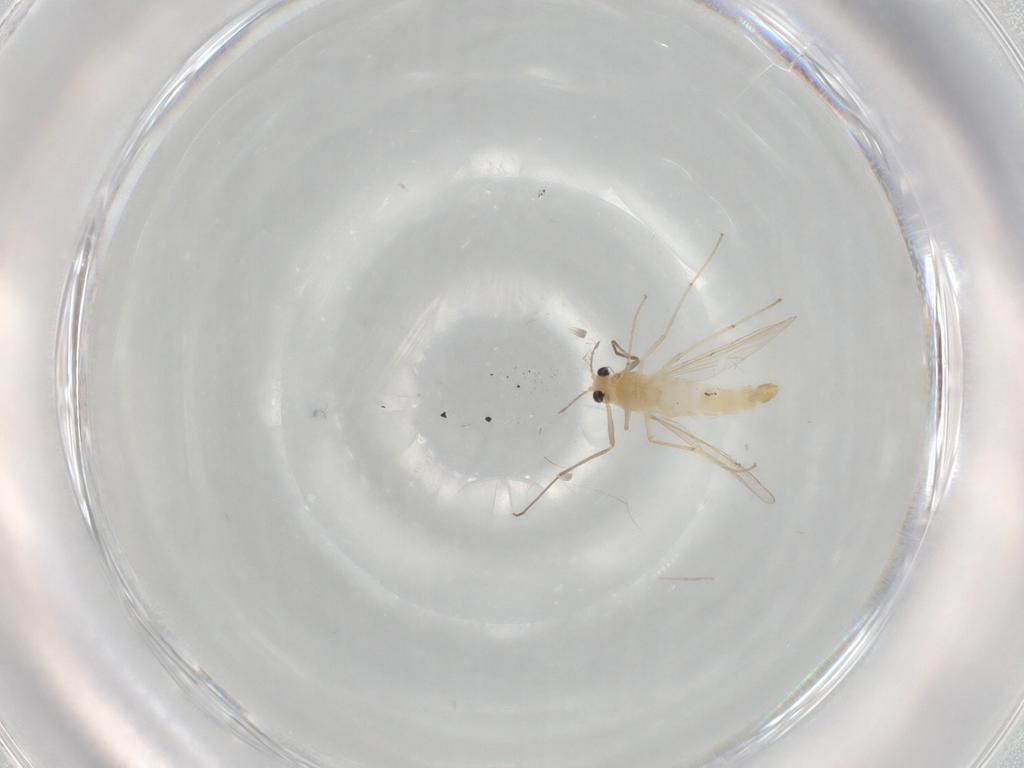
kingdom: Animalia
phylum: Arthropoda
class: Insecta
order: Diptera
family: Chironomidae
